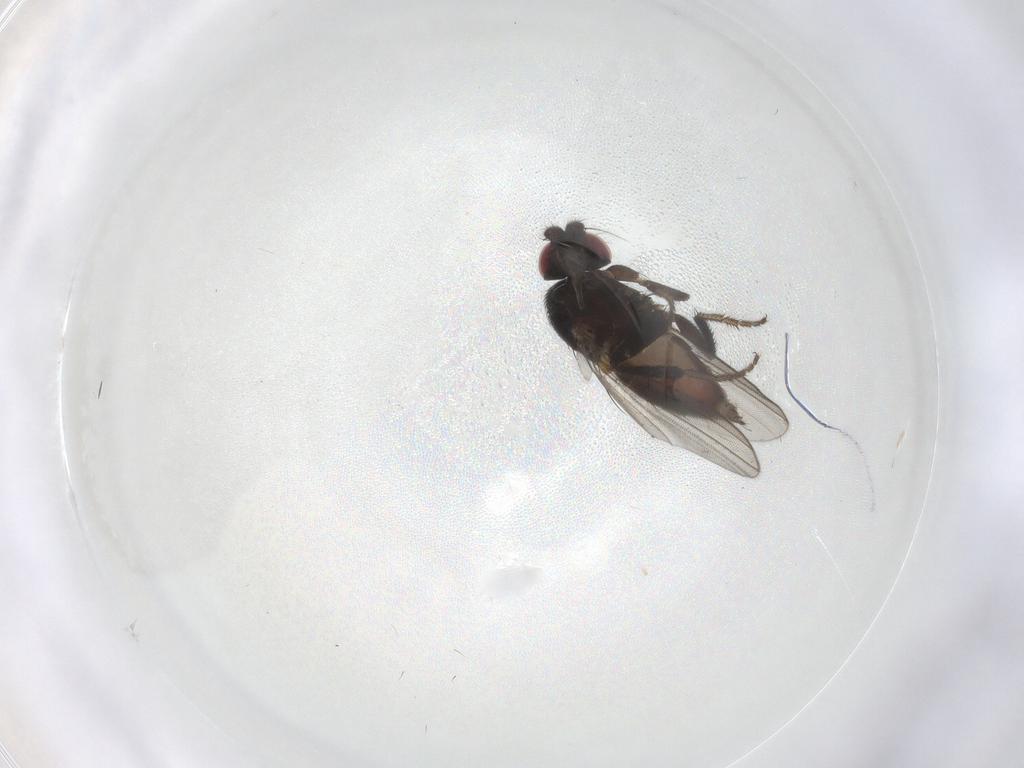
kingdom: Animalia
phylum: Arthropoda
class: Insecta
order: Diptera
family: Milichiidae
